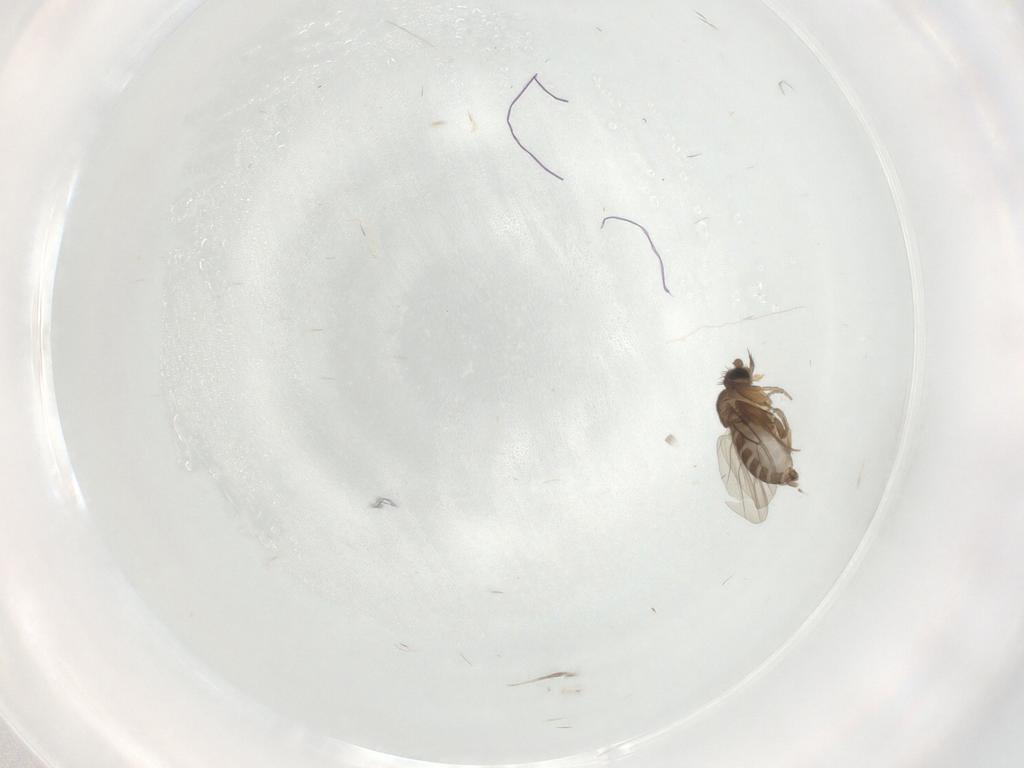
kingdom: Animalia
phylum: Arthropoda
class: Insecta
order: Diptera
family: Phoridae
